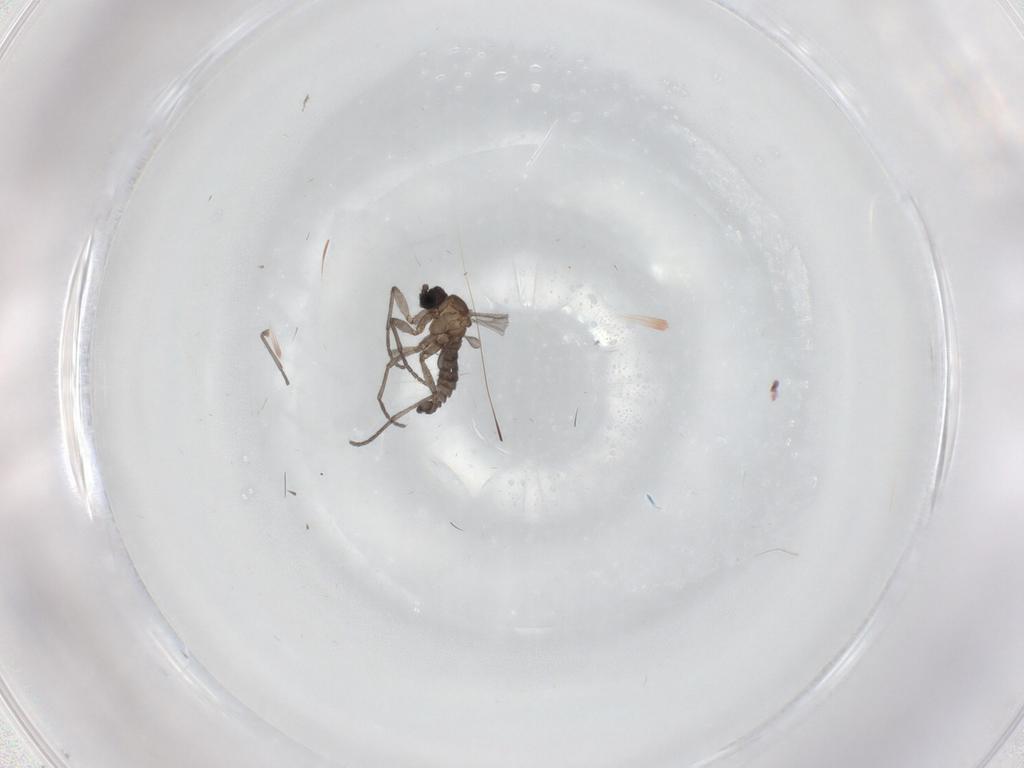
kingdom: Animalia
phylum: Arthropoda
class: Insecta
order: Diptera
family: Sciaridae
